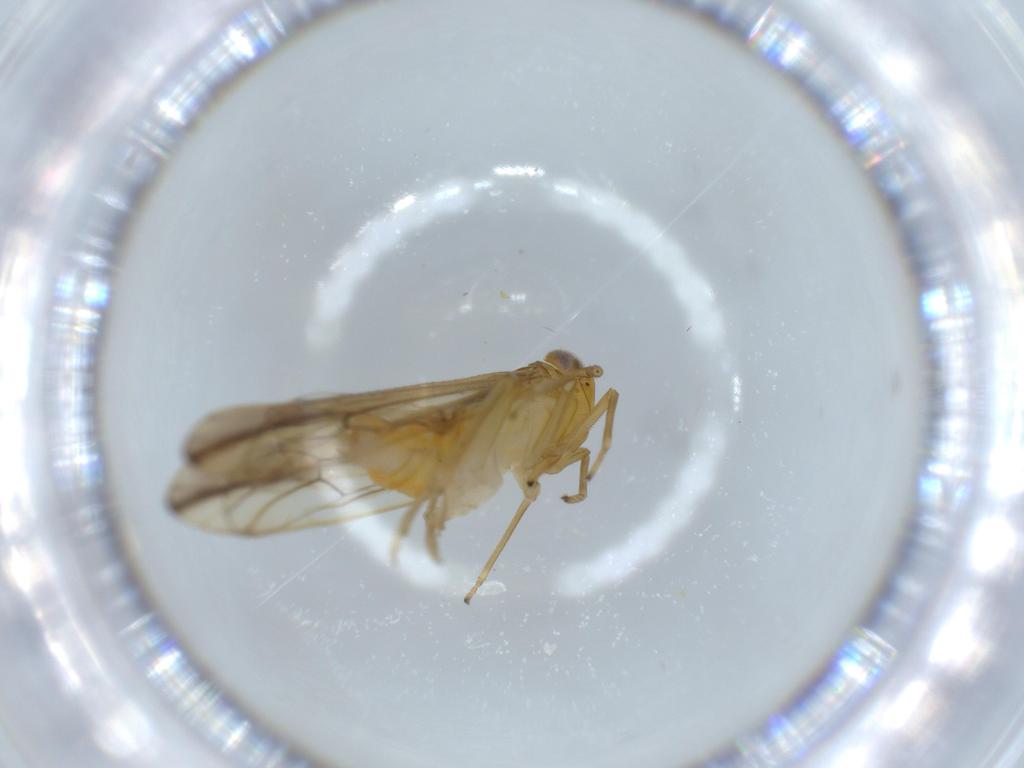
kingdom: Animalia
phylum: Arthropoda
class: Insecta
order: Hemiptera
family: Delphacidae
